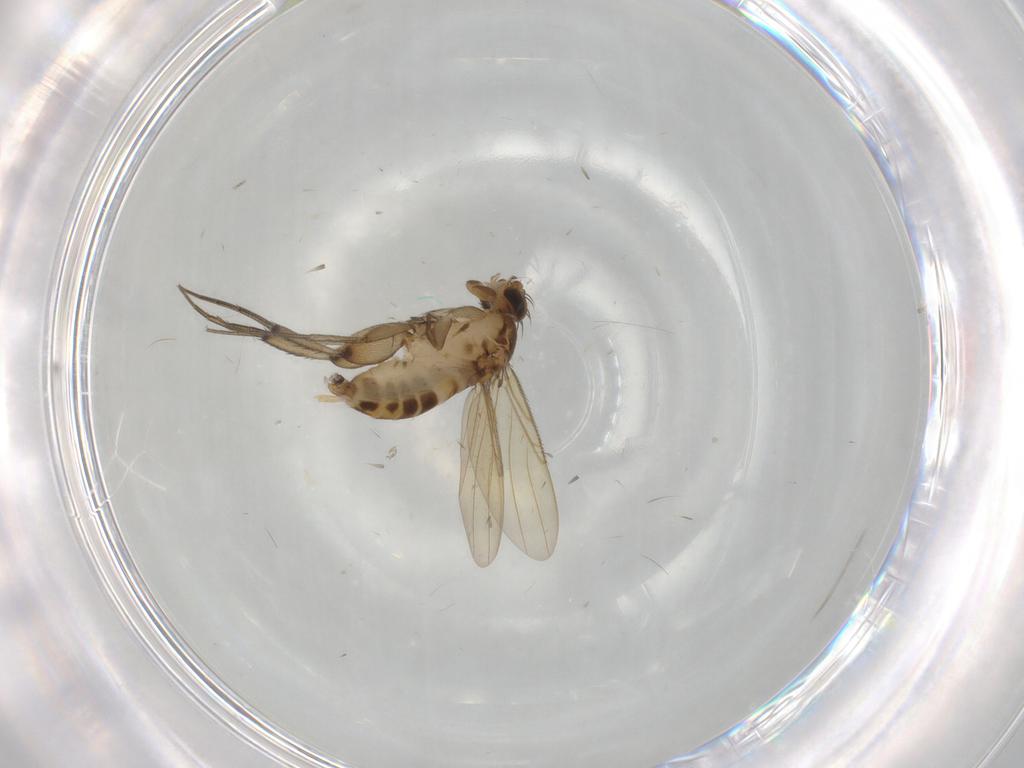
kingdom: Animalia
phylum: Arthropoda
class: Insecta
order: Diptera
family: Phoridae
